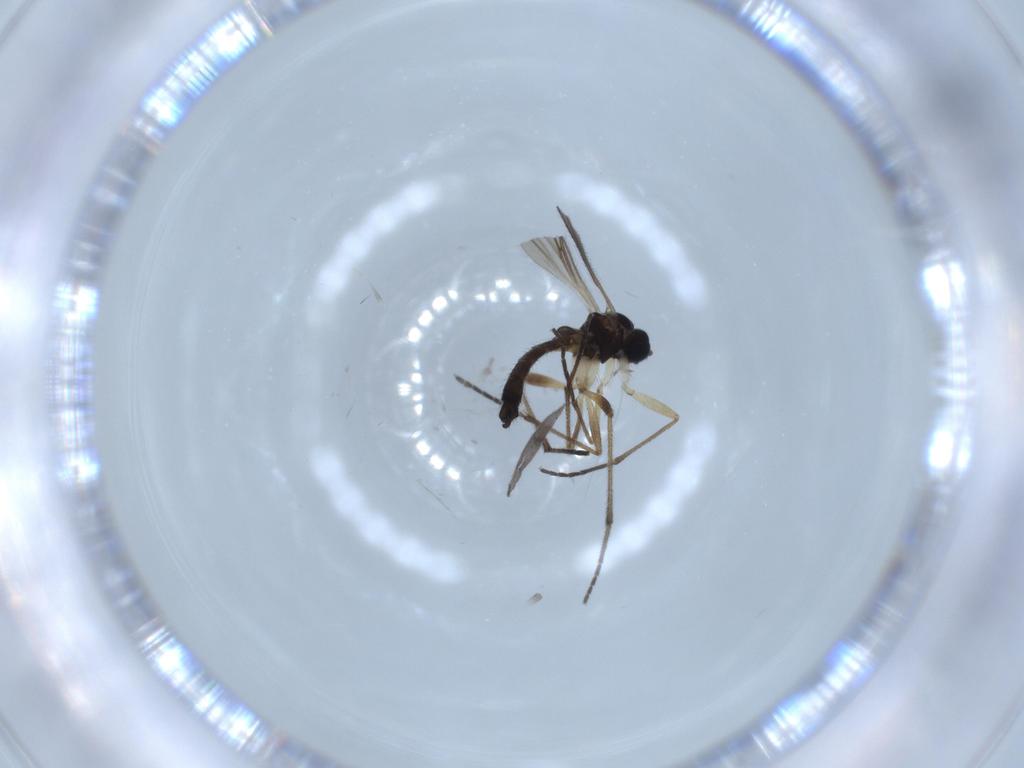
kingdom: Animalia
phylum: Arthropoda
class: Insecta
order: Diptera
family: Sciaridae
